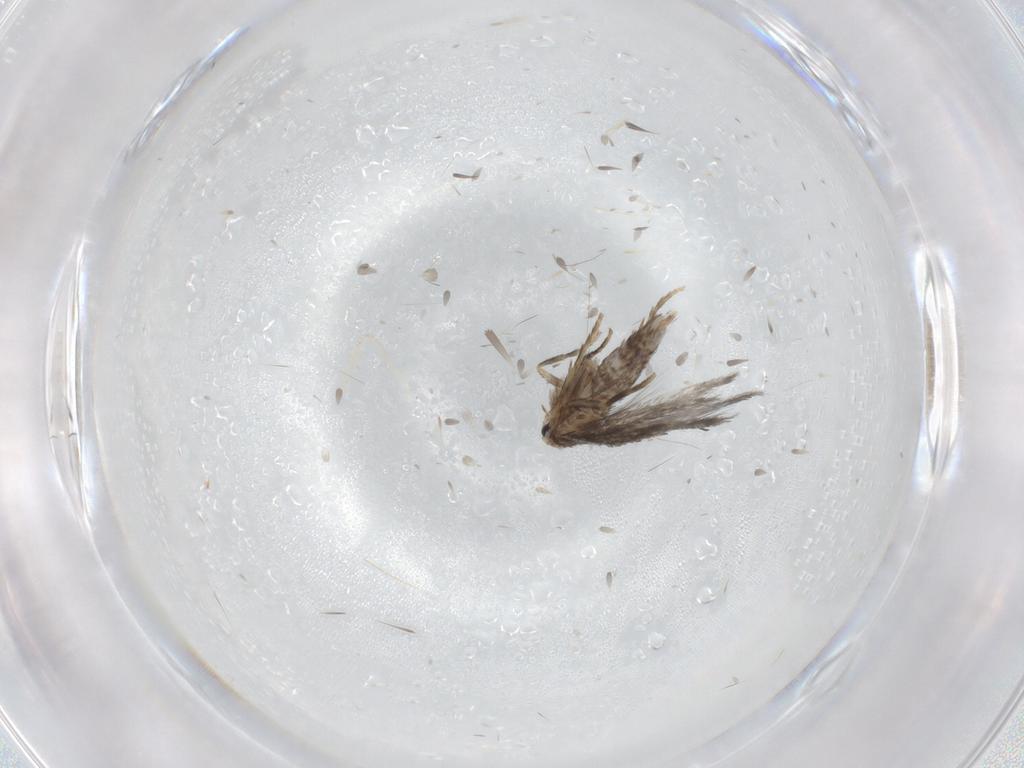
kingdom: Animalia
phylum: Arthropoda
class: Insecta
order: Lepidoptera
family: Nepticulidae
